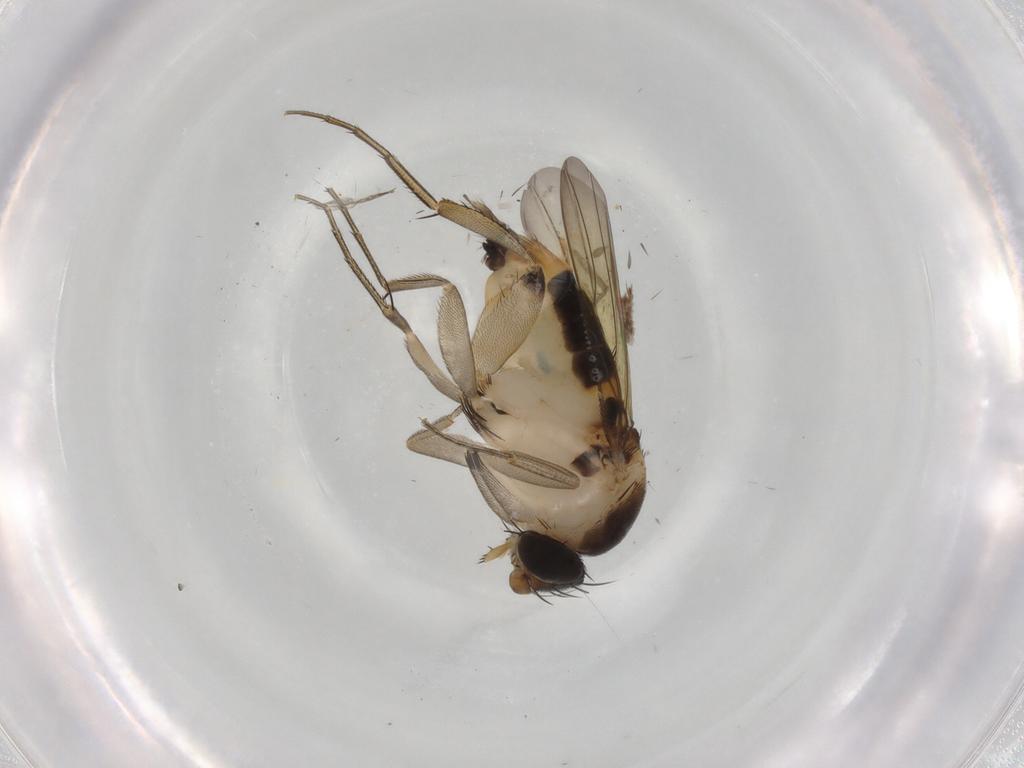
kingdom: Animalia
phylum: Arthropoda
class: Insecta
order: Diptera
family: Phoridae
